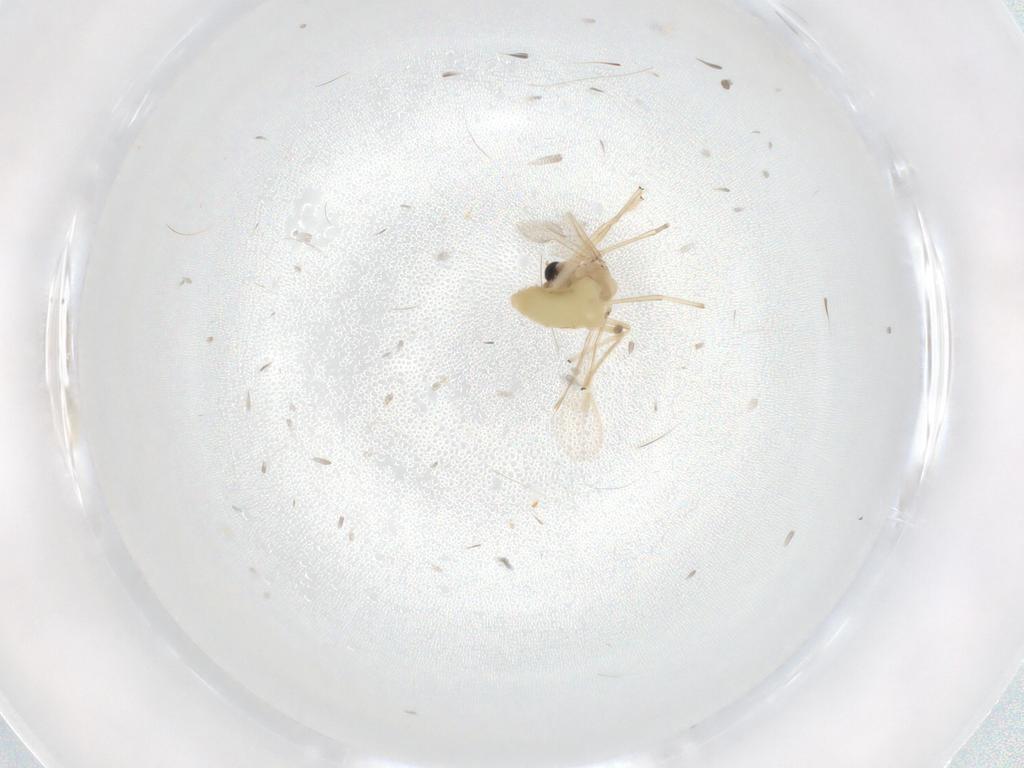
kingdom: Animalia
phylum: Arthropoda
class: Insecta
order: Diptera
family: Chironomidae
